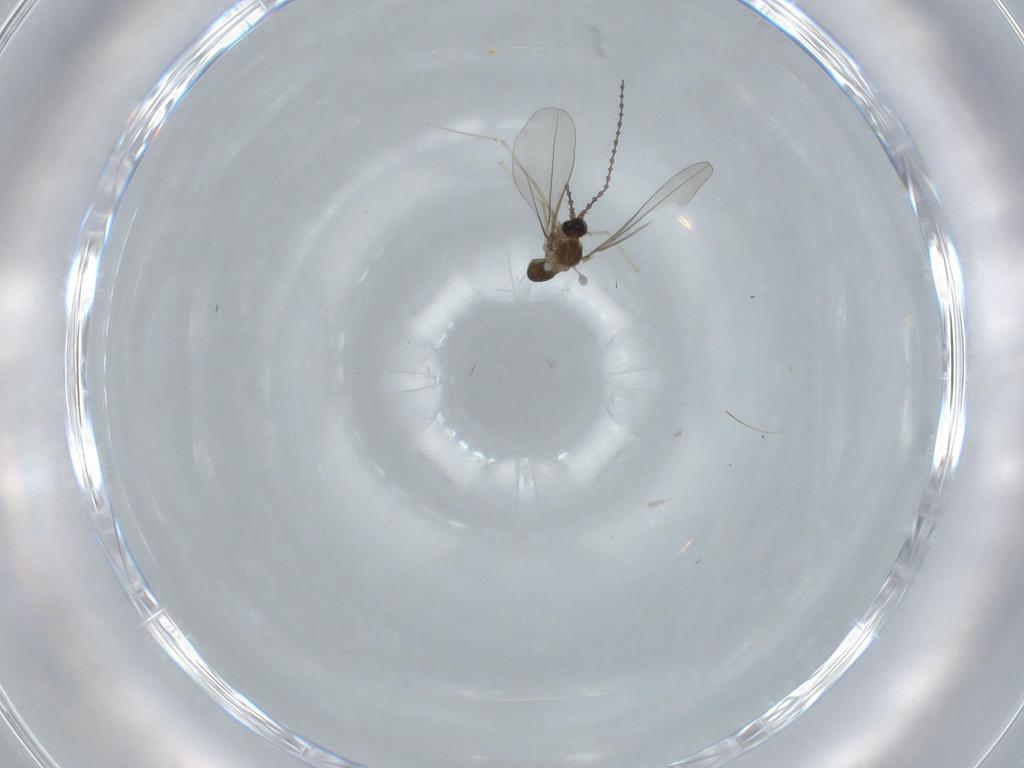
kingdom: Animalia
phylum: Arthropoda
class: Insecta
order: Diptera
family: Cecidomyiidae
